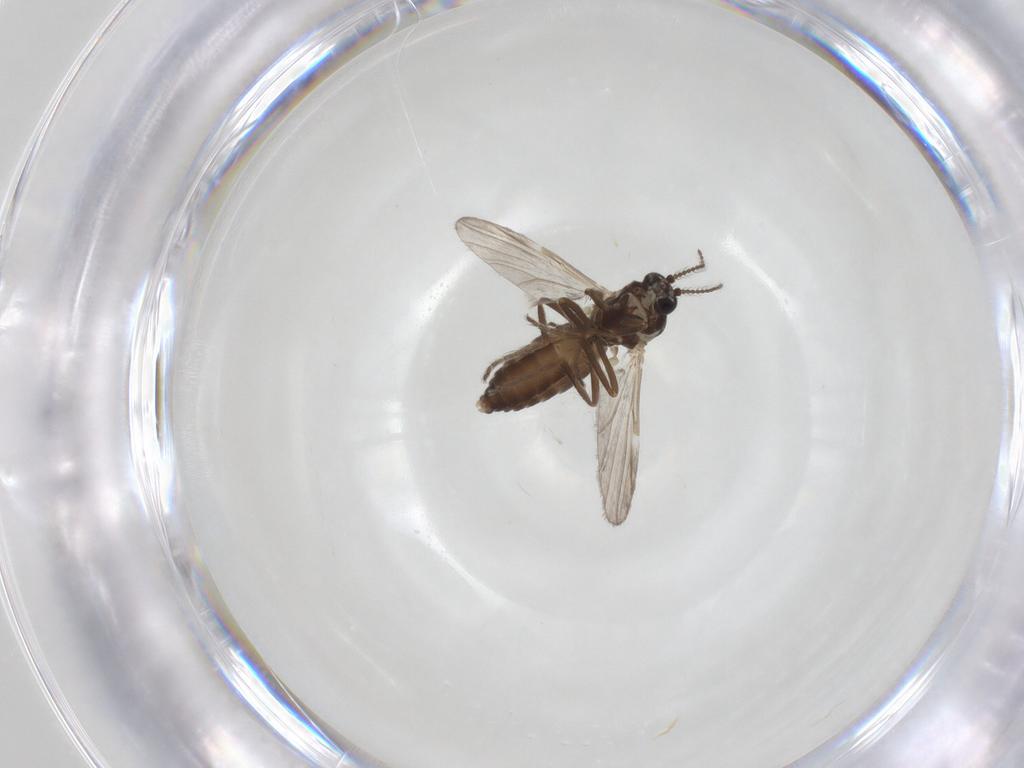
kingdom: Animalia
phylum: Arthropoda
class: Insecta
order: Diptera
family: Ceratopogonidae
